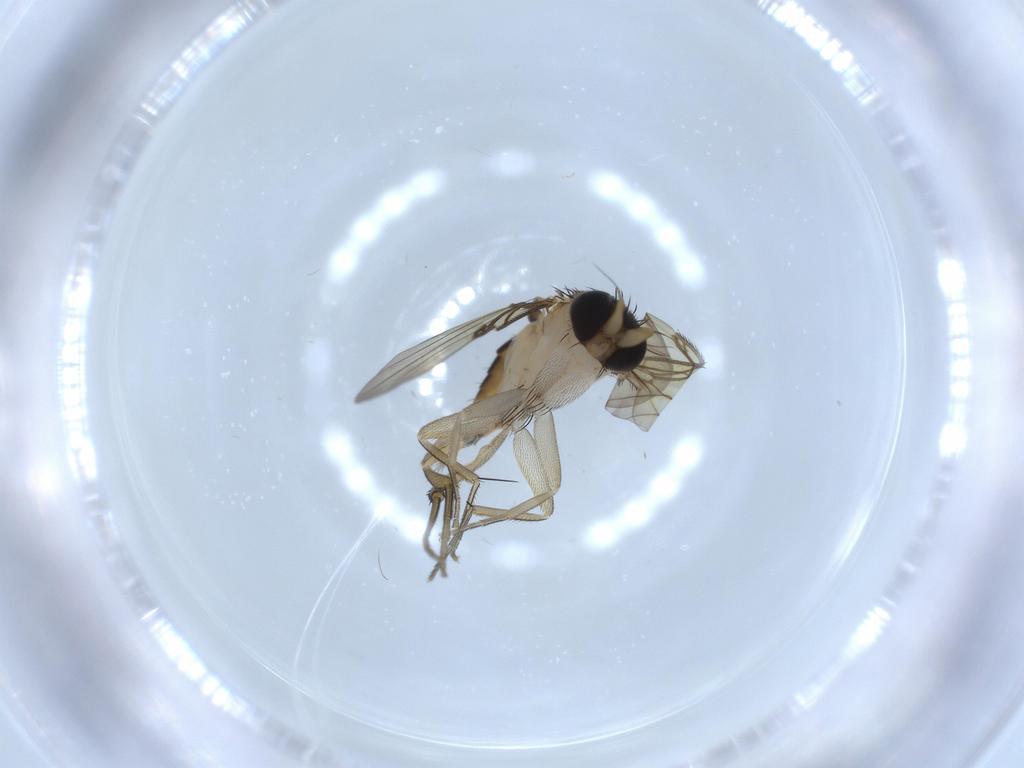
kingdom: Animalia
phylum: Arthropoda
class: Insecta
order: Diptera
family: Phoridae
